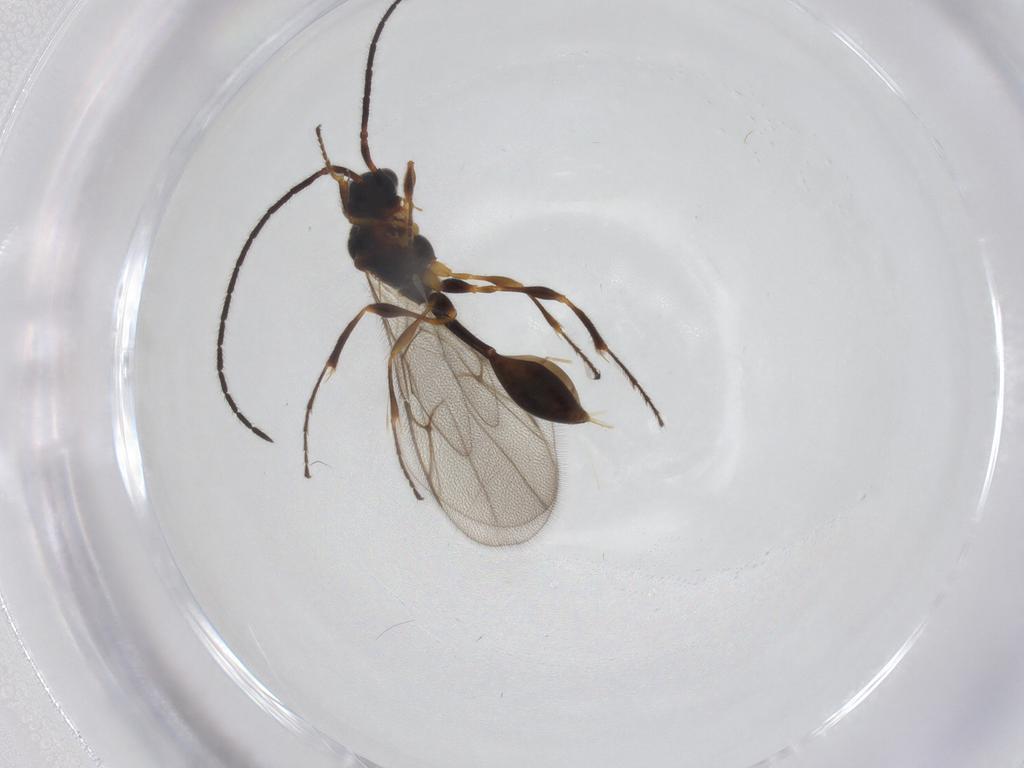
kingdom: Animalia
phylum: Arthropoda
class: Insecta
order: Hymenoptera
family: Diapriidae
